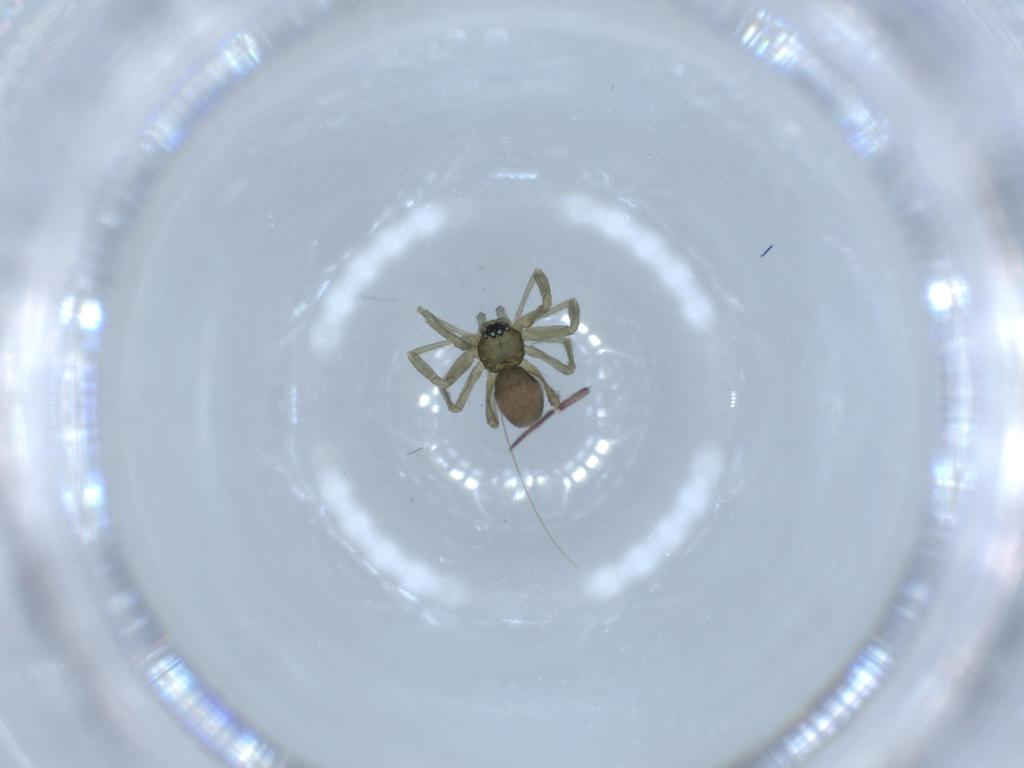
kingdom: Animalia
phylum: Arthropoda
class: Arachnida
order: Araneae
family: Linyphiidae
